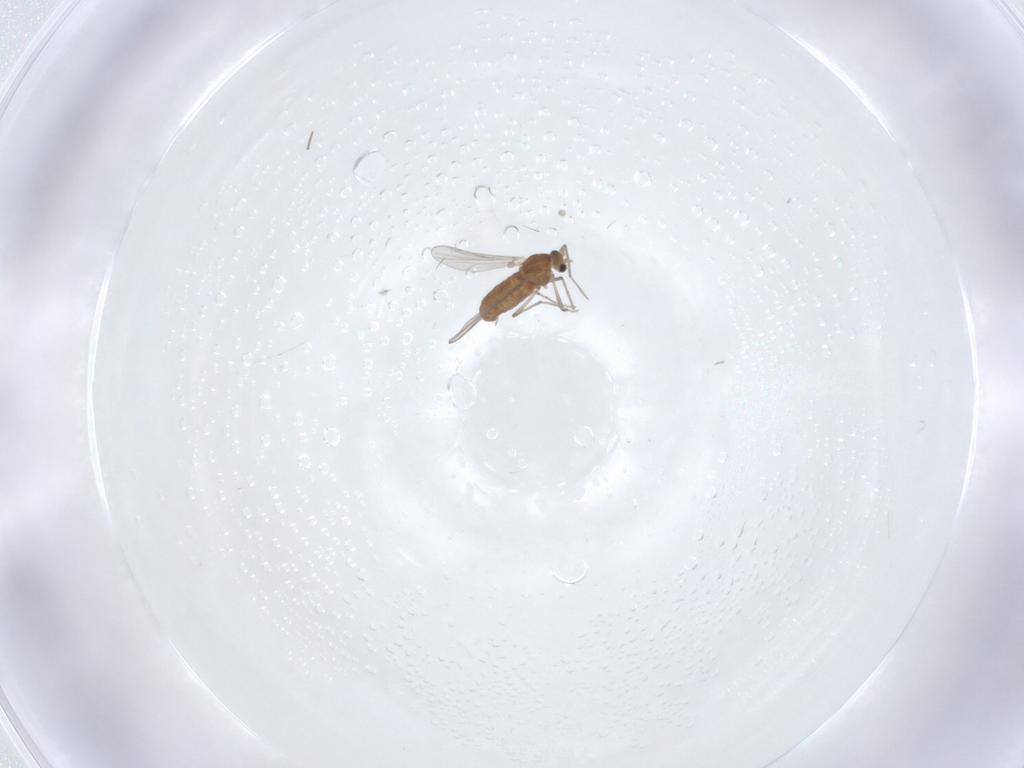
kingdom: Animalia
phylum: Arthropoda
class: Insecta
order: Diptera
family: Chironomidae
